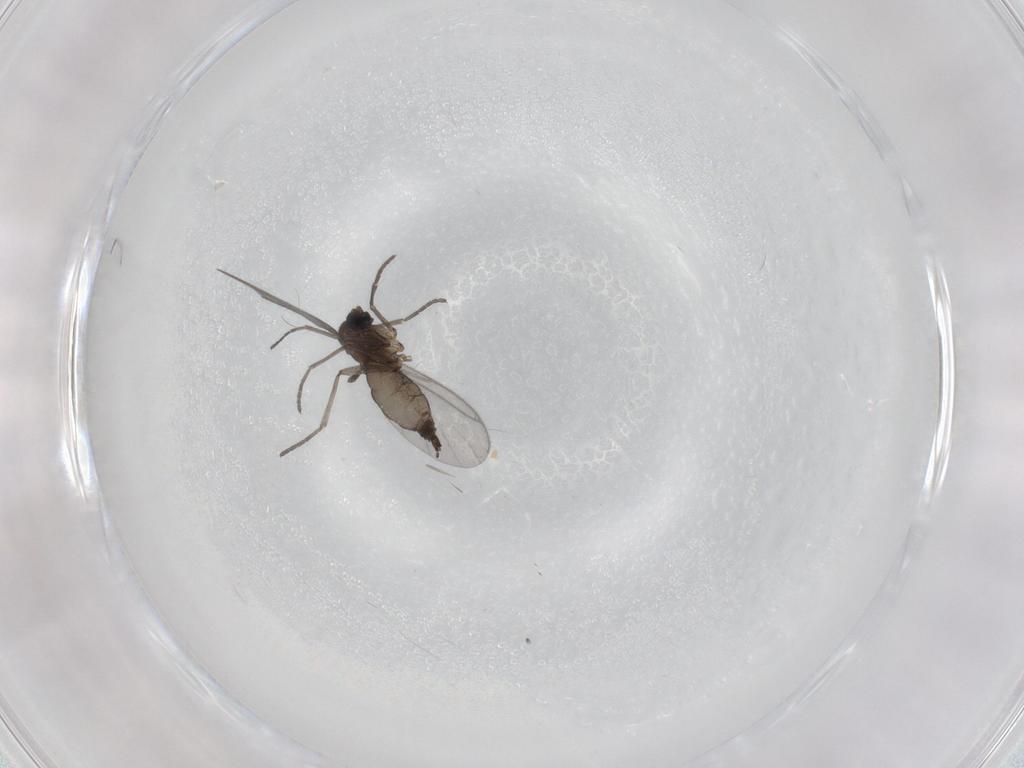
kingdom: Animalia
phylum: Arthropoda
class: Insecta
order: Diptera
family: Sciaridae
